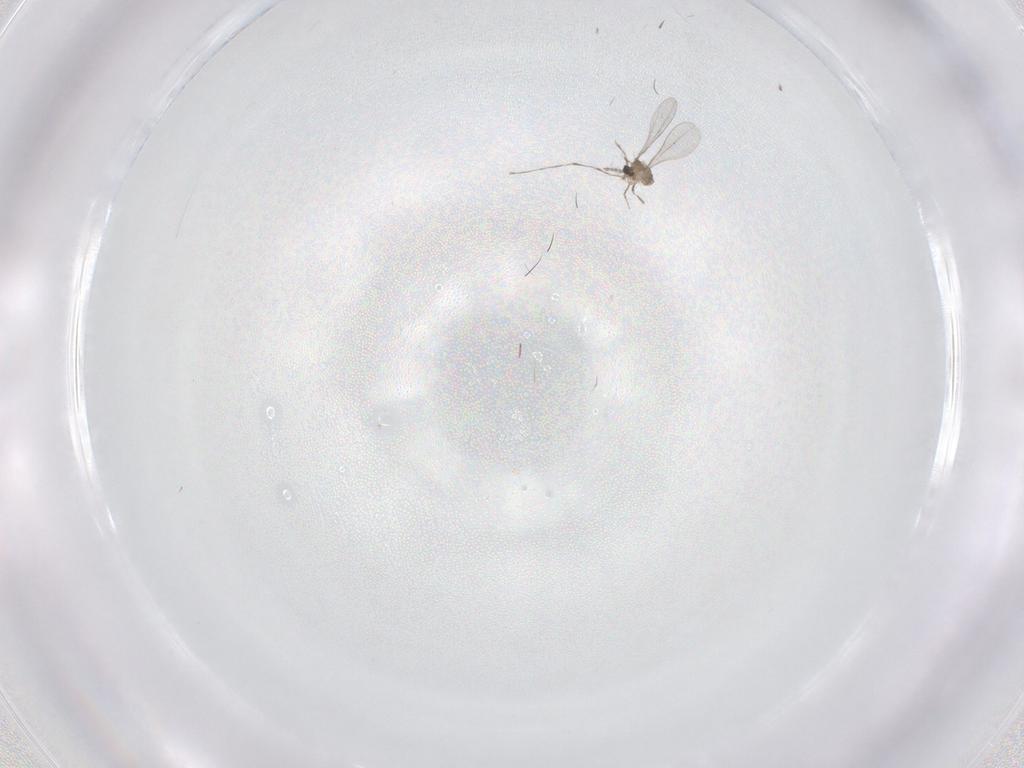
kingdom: Animalia
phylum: Arthropoda
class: Insecta
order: Diptera
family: Cecidomyiidae
